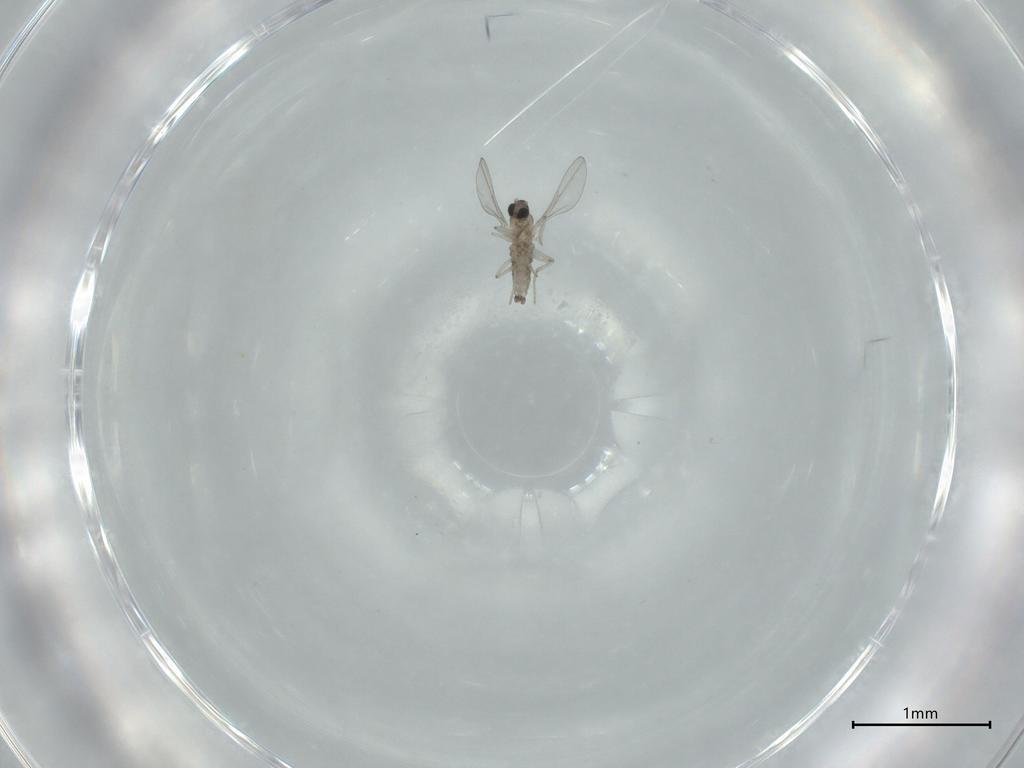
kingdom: Animalia
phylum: Arthropoda
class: Insecta
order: Diptera
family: Cecidomyiidae
